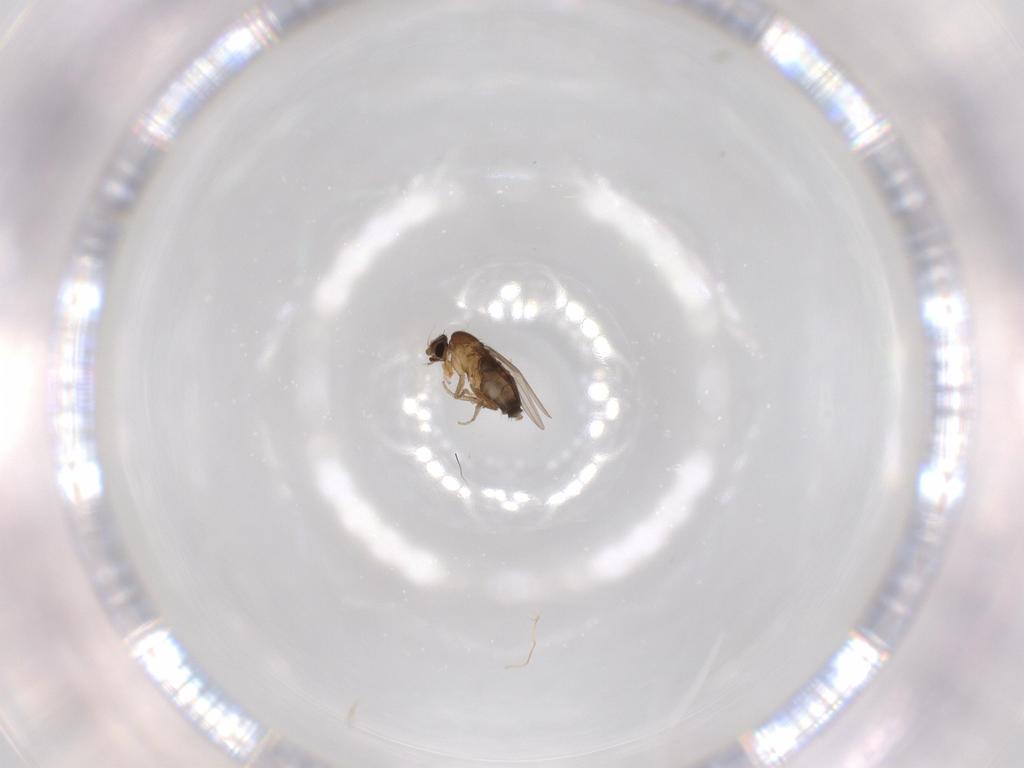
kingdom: Animalia
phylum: Arthropoda
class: Insecta
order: Diptera
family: Phoridae
